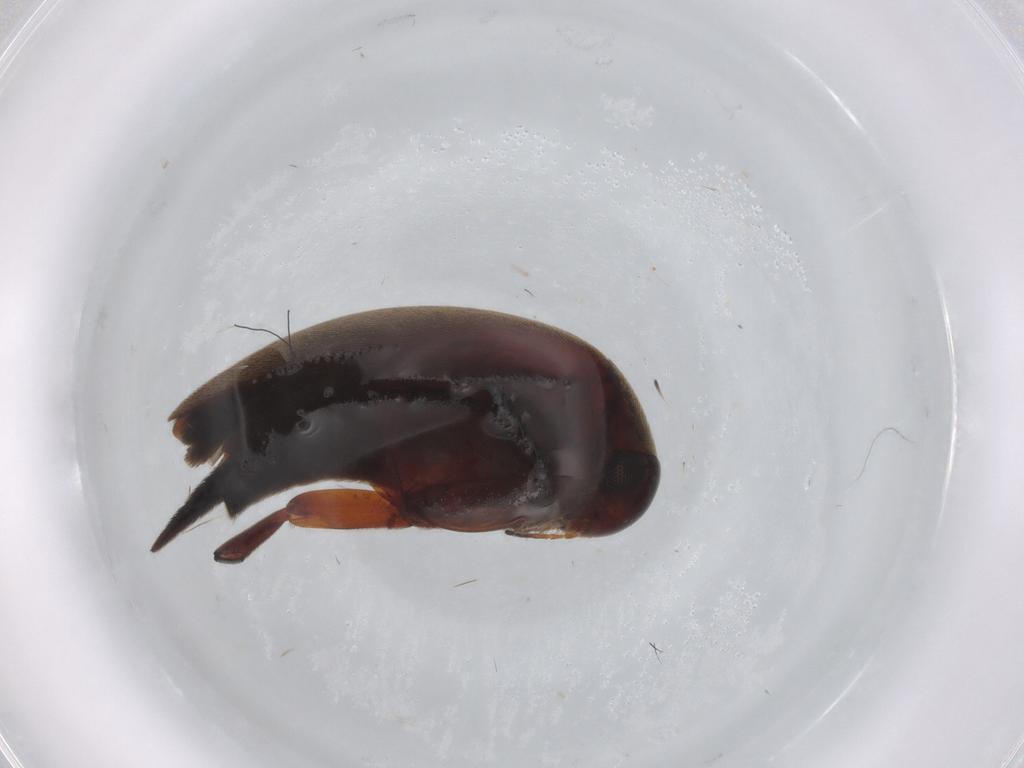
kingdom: Animalia
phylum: Arthropoda
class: Insecta
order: Coleoptera
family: Mordellidae
